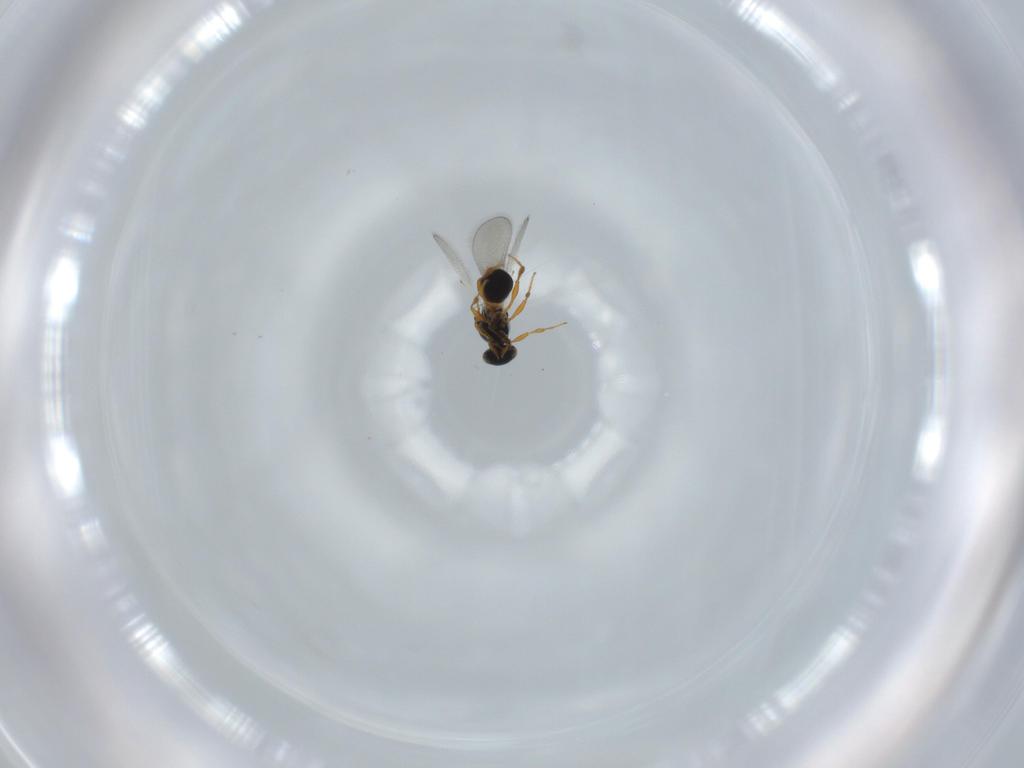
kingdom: Animalia
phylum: Arthropoda
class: Insecta
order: Hymenoptera
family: Platygastridae
